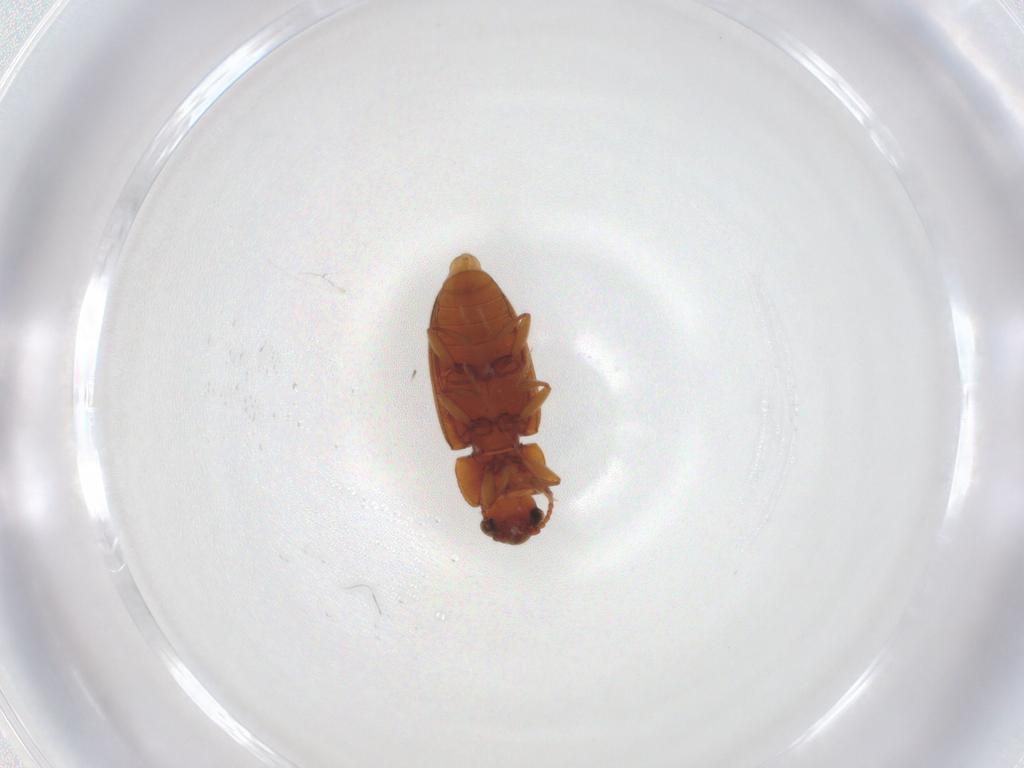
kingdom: Animalia
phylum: Arthropoda
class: Insecta
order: Coleoptera
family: Erotylidae
